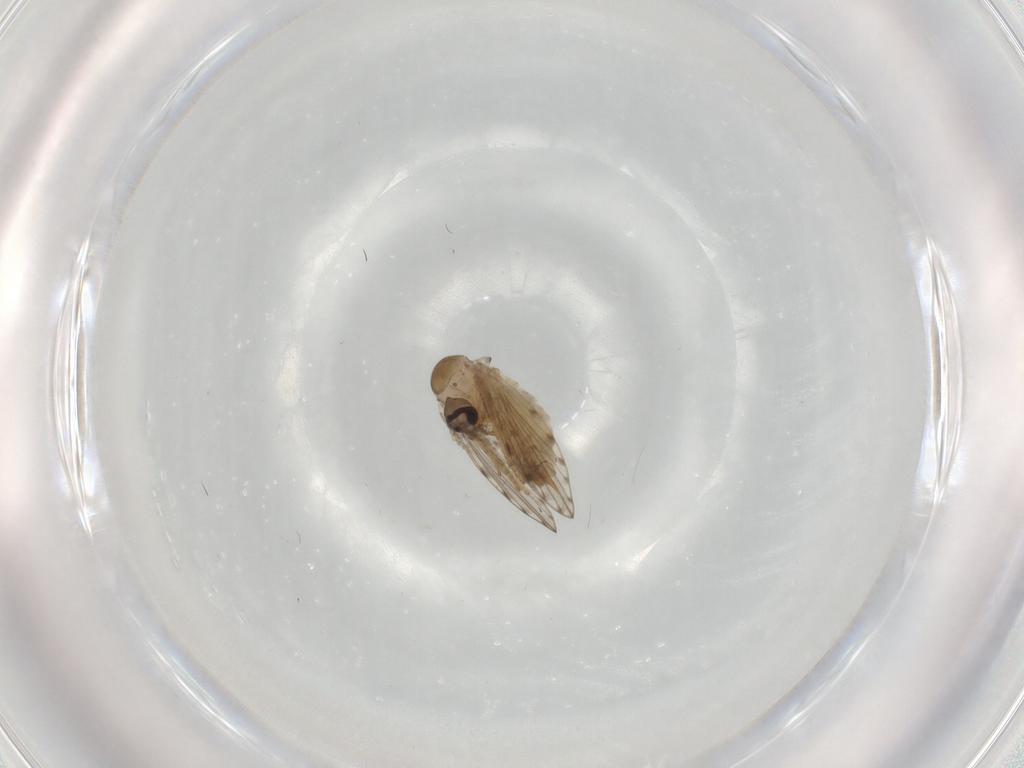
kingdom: Animalia
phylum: Arthropoda
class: Insecta
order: Diptera
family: Psychodidae
